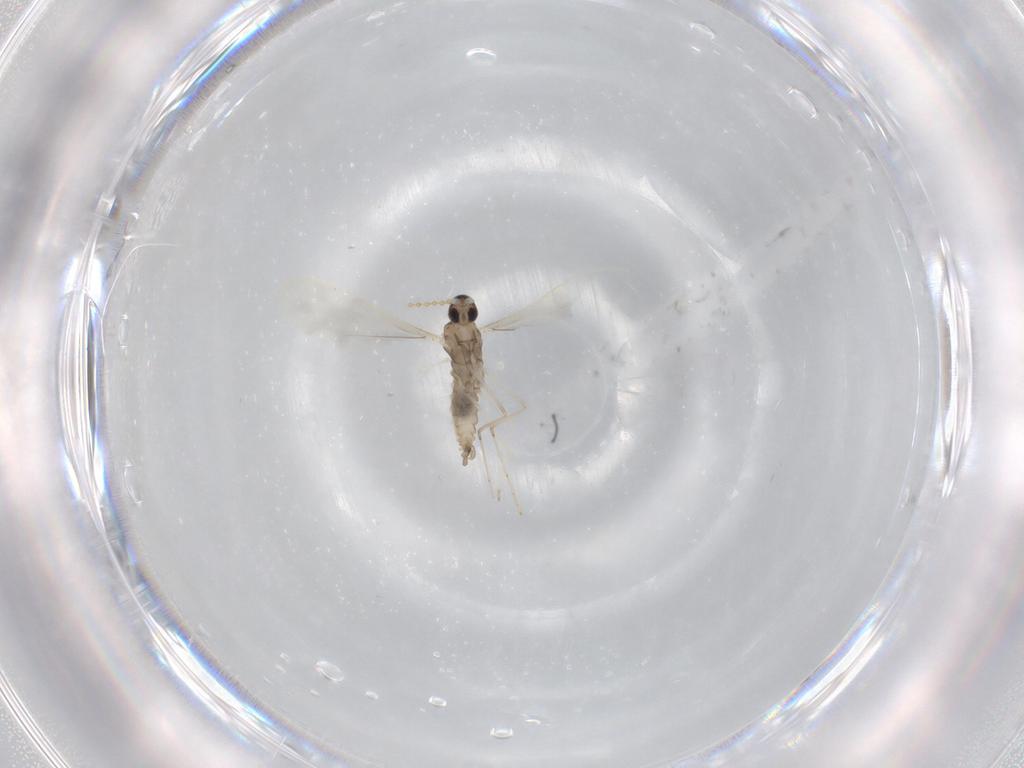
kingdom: Animalia
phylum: Arthropoda
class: Insecta
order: Diptera
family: Cecidomyiidae
